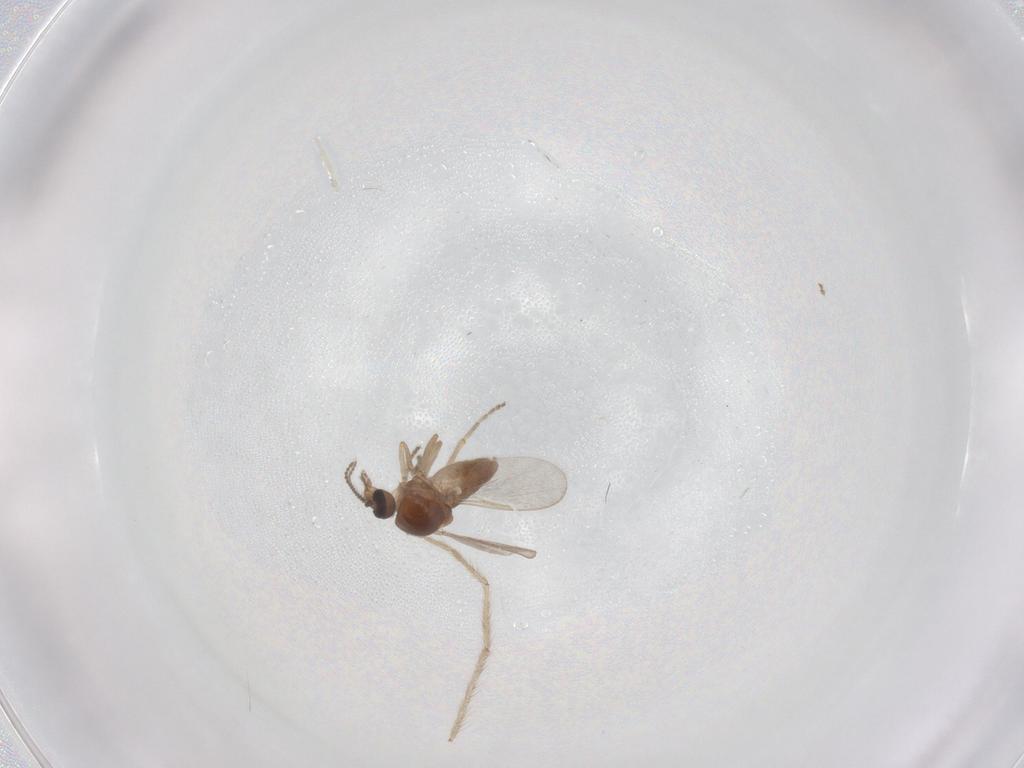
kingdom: Animalia
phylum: Arthropoda
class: Insecta
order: Diptera
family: Ceratopogonidae
